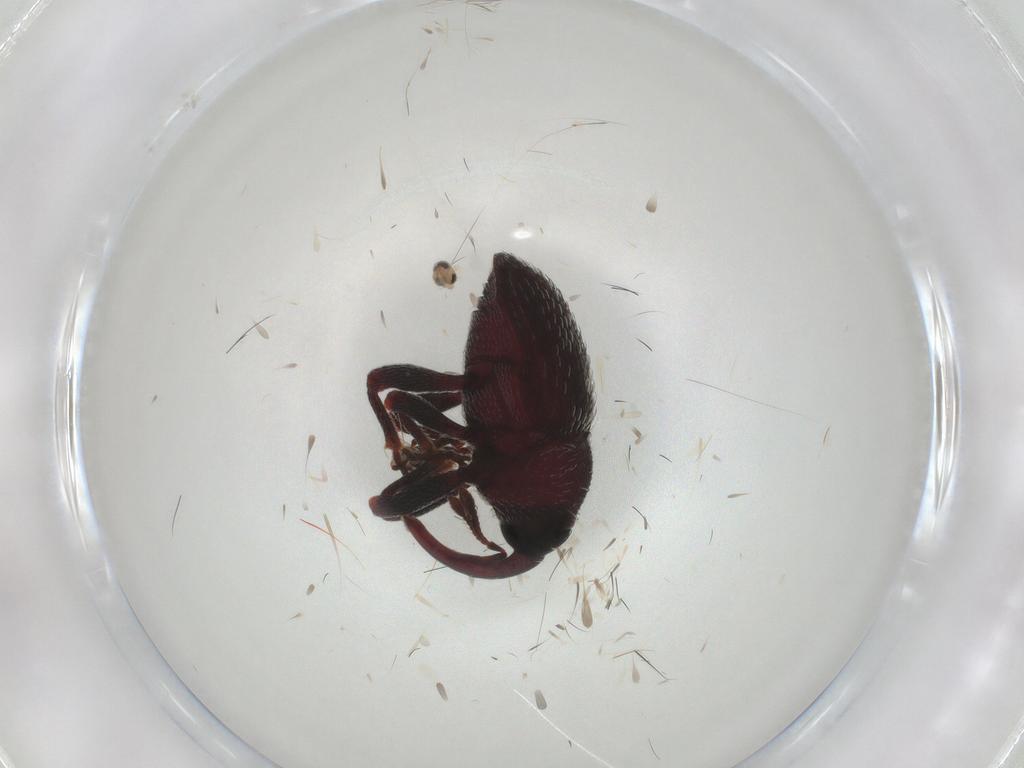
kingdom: Animalia
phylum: Arthropoda
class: Insecta
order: Coleoptera
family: Curculionidae
